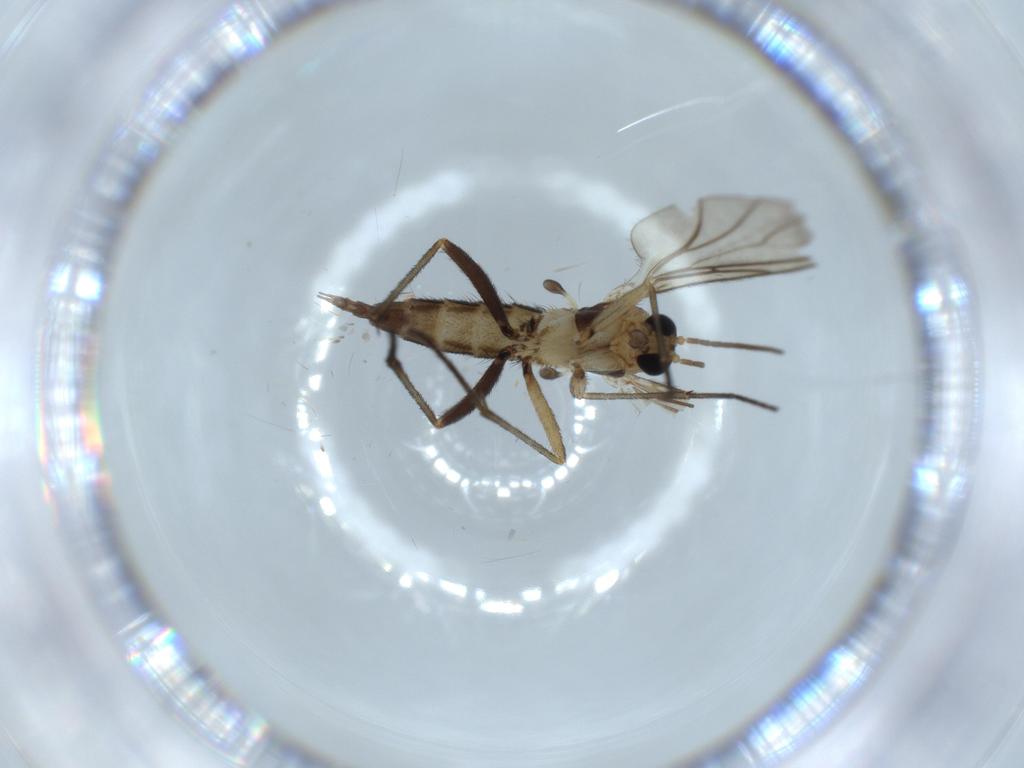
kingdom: Animalia
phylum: Arthropoda
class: Insecta
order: Diptera
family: Sciaridae
